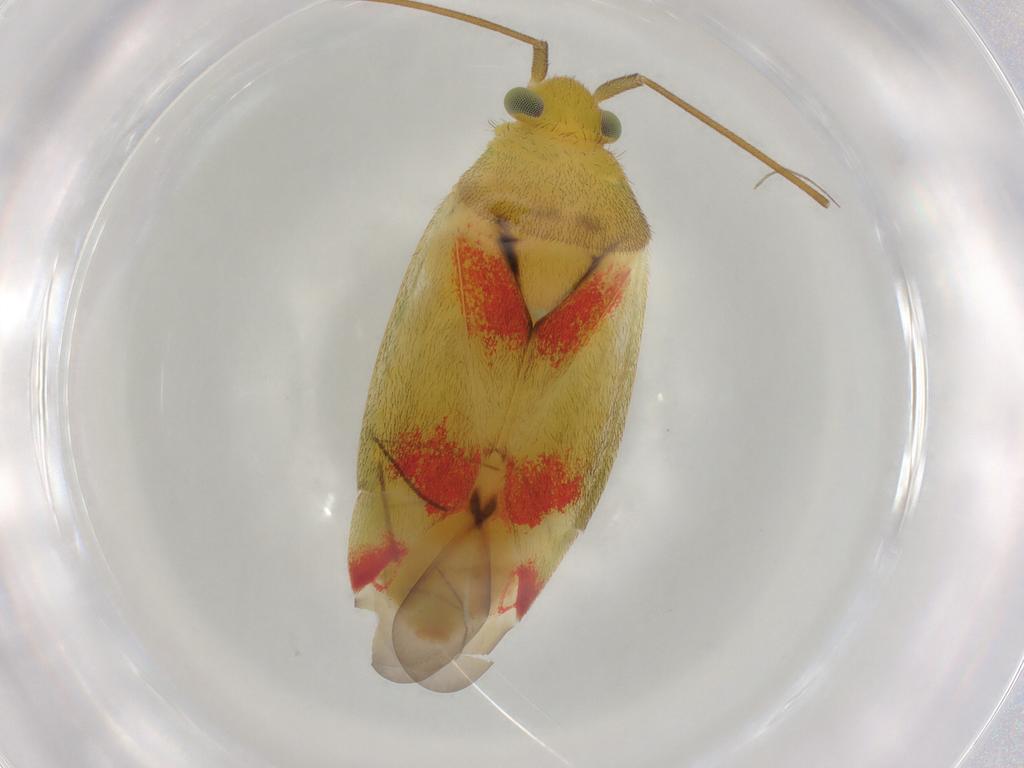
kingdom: Animalia
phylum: Arthropoda
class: Insecta
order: Hemiptera
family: Miridae
